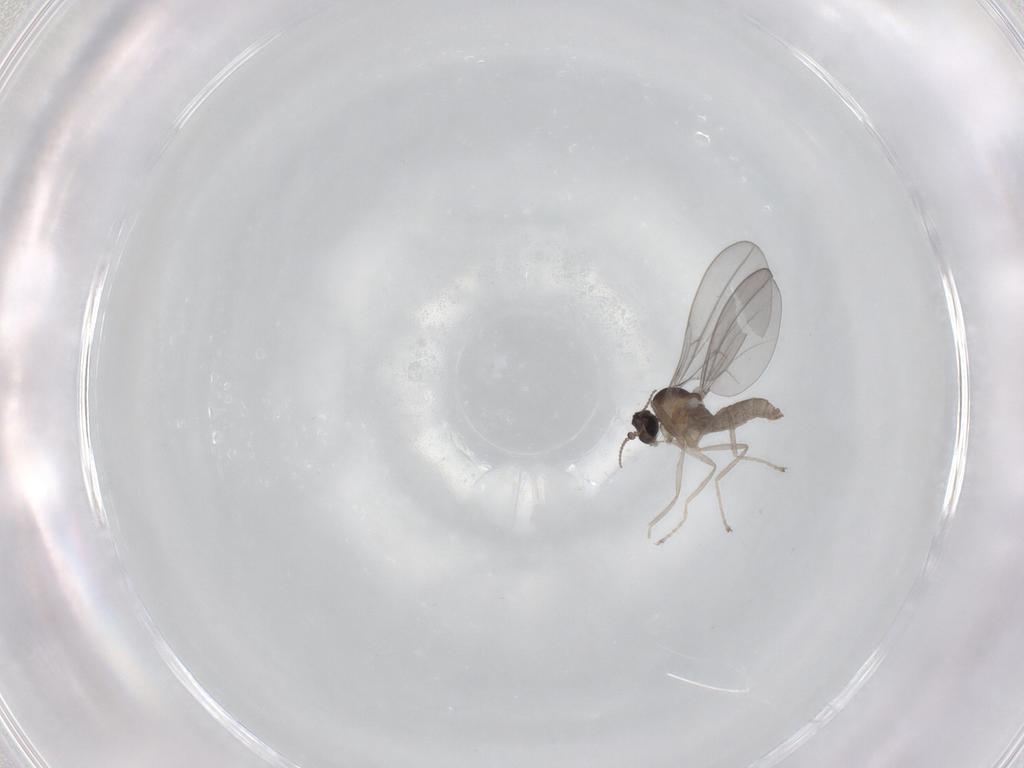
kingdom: Animalia
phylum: Arthropoda
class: Insecta
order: Diptera
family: Cecidomyiidae
